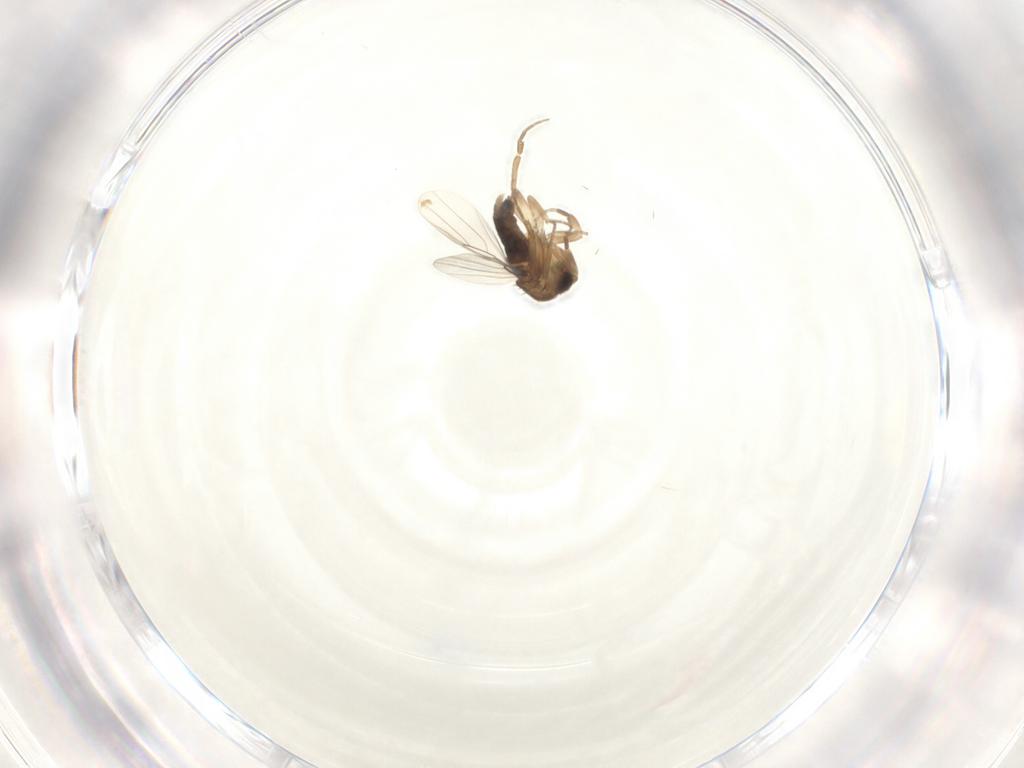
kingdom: Animalia
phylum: Arthropoda
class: Insecta
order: Diptera
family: Phoridae
